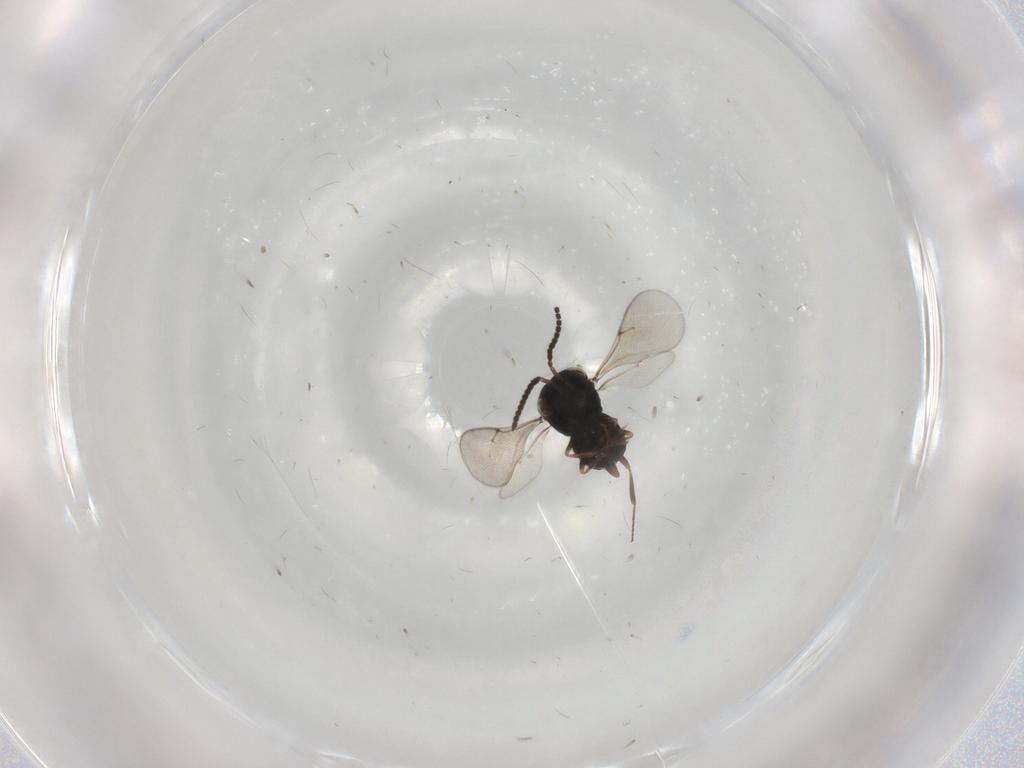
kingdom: Animalia
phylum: Arthropoda
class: Insecta
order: Hymenoptera
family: Scelionidae
